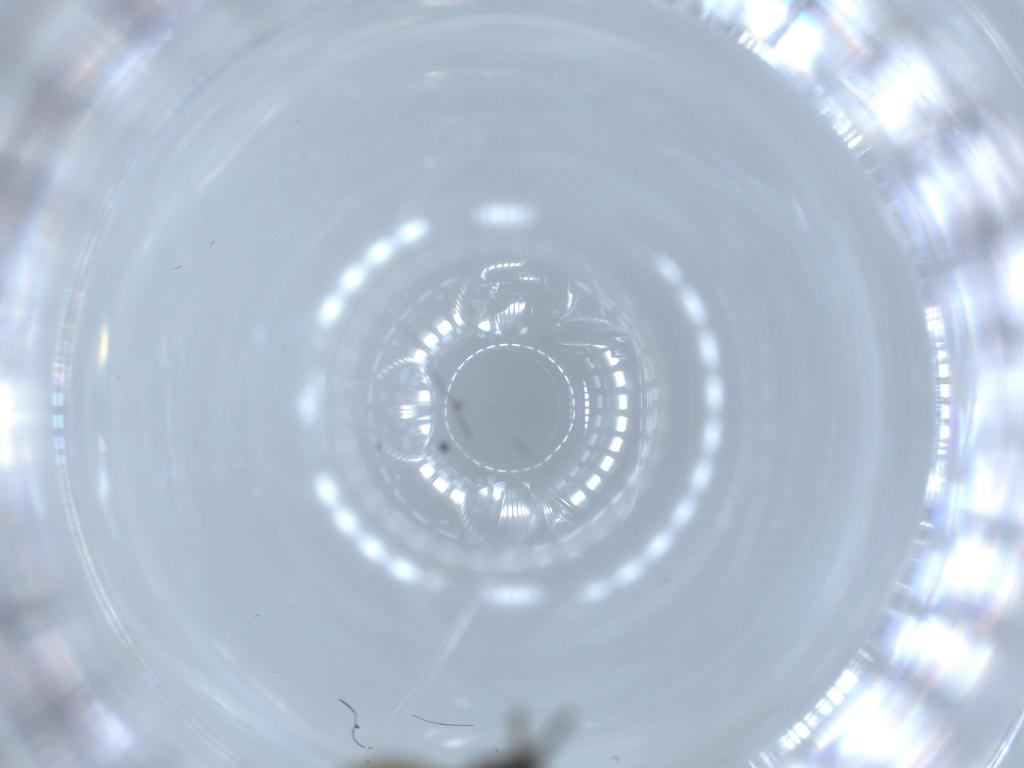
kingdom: Animalia
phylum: Arthropoda
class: Insecta
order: Diptera
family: Sciaridae
